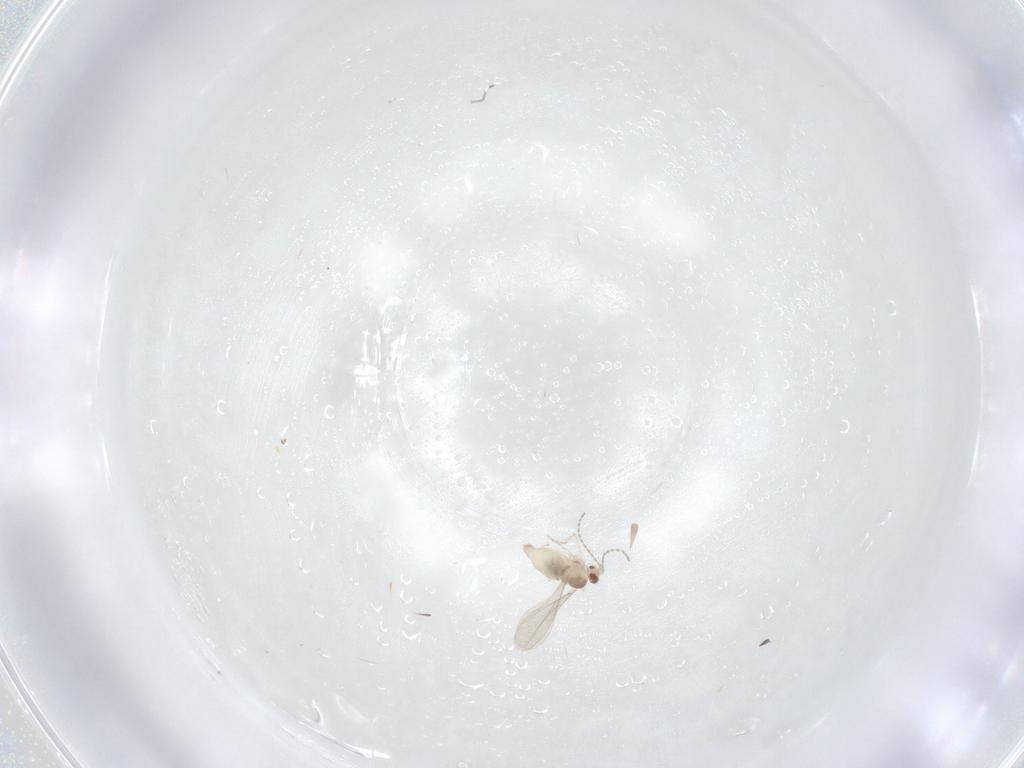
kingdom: Animalia
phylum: Arthropoda
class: Insecta
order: Diptera
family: Cecidomyiidae
